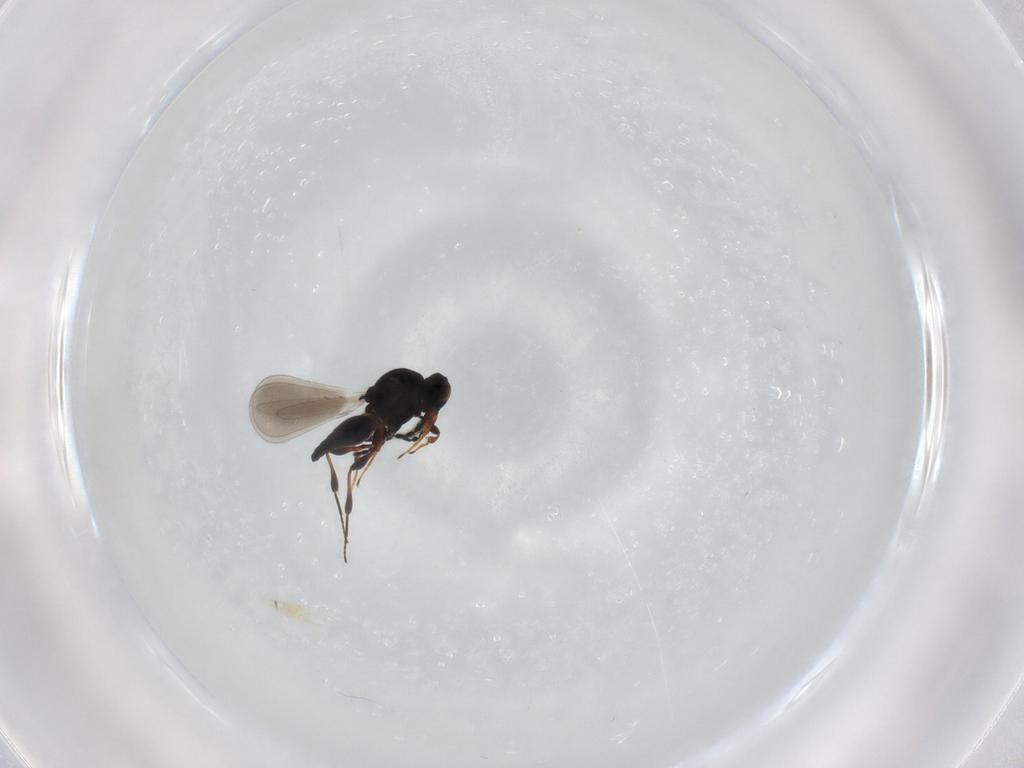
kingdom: Animalia
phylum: Arthropoda
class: Insecta
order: Hymenoptera
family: Platygastridae
